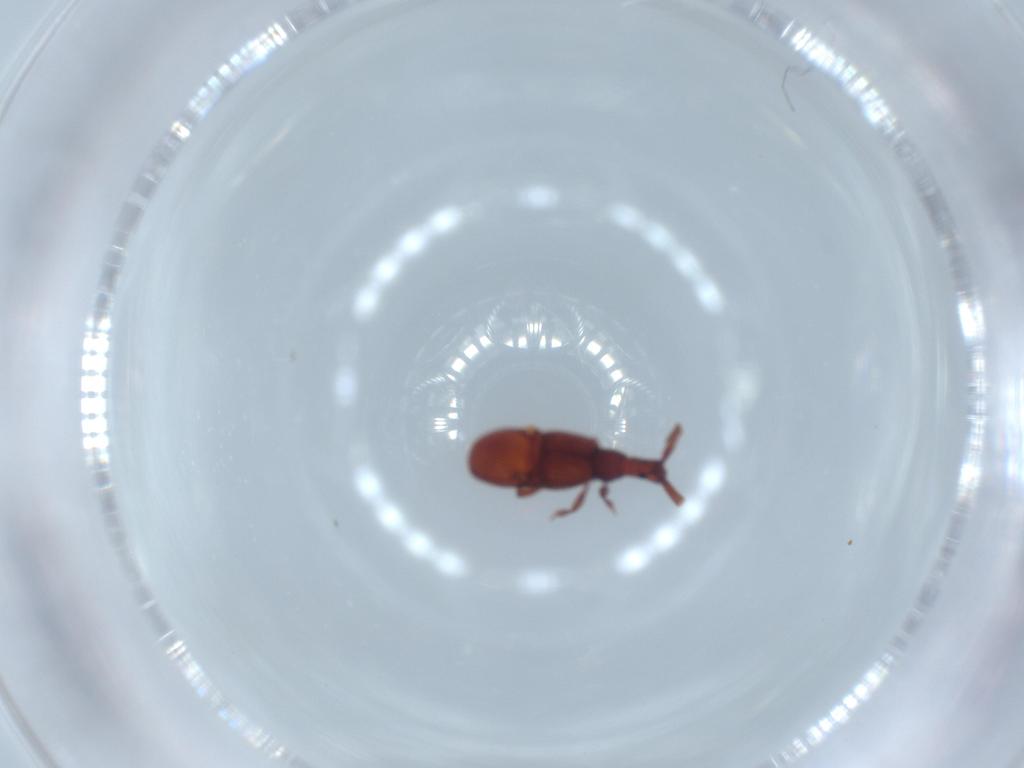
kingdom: Animalia
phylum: Arthropoda
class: Insecta
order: Coleoptera
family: Staphylinidae
